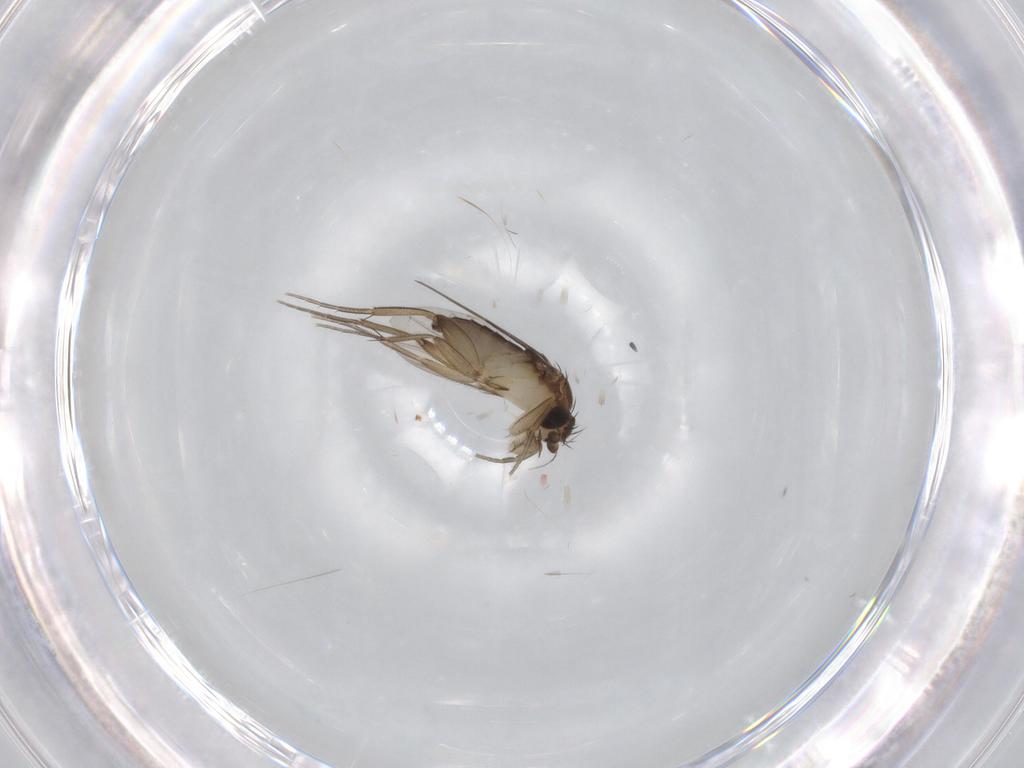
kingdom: Animalia
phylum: Arthropoda
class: Insecta
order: Diptera
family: Phoridae
